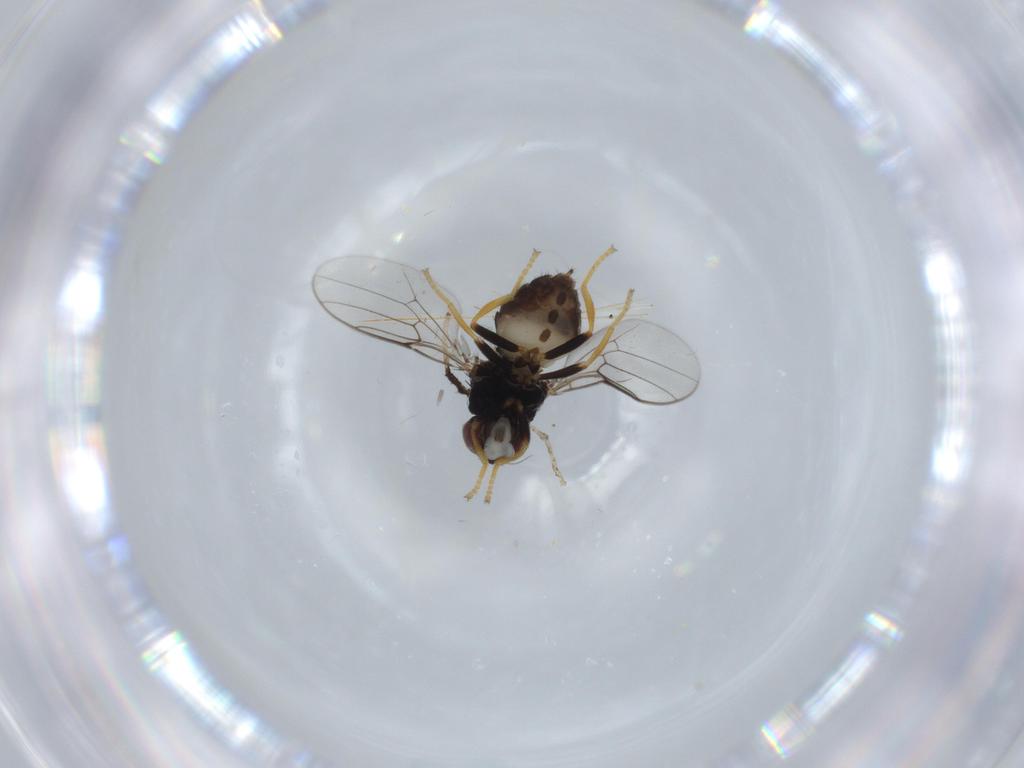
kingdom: Animalia
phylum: Arthropoda
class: Insecta
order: Diptera
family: Chloropidae
